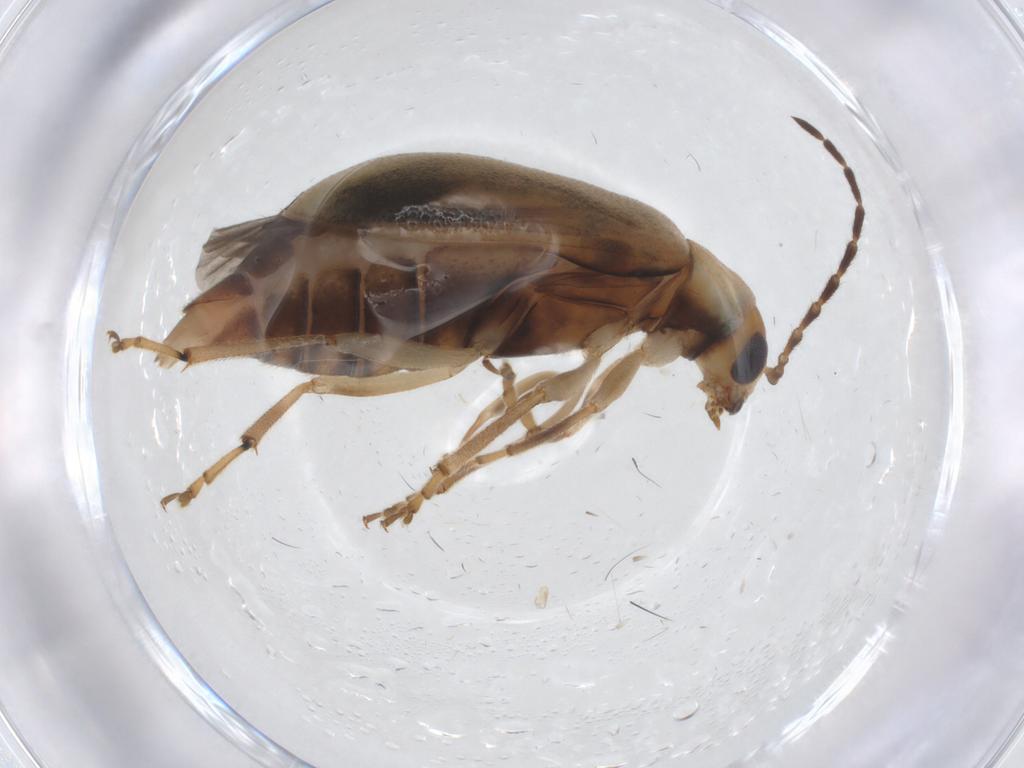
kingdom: Animalia
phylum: Arthropoda
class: Insecta
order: Coleoptera
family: Chrysomelidae
